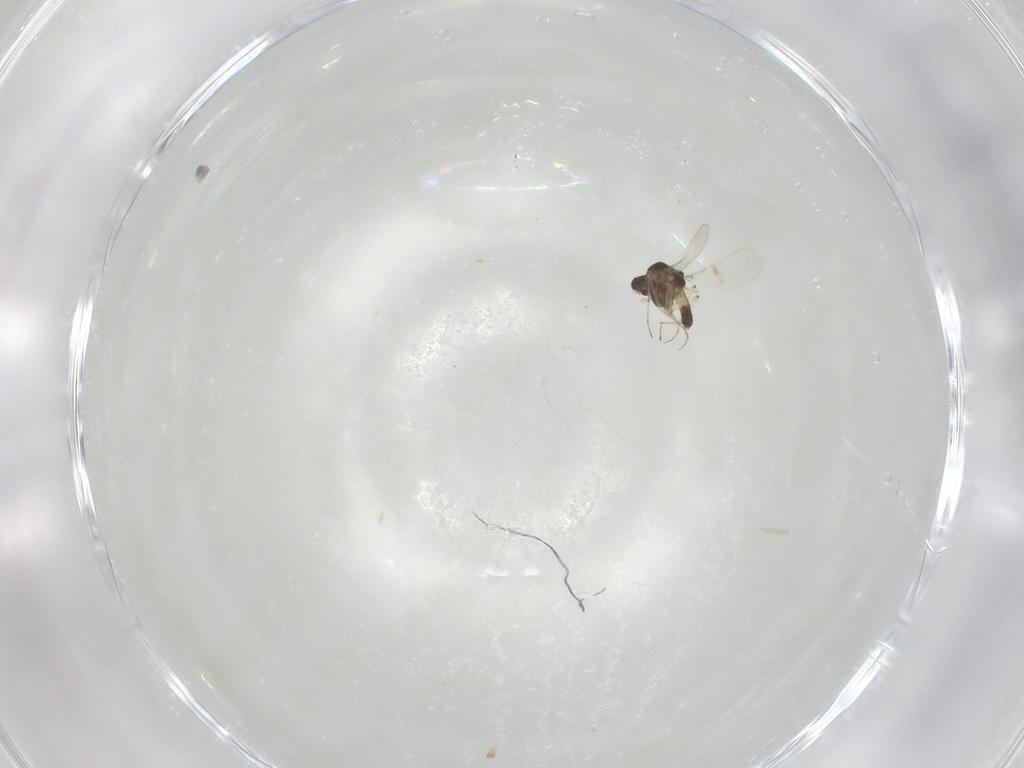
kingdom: Animalia
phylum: Arthropoda
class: Insecta
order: Diptera
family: Chironomidae
